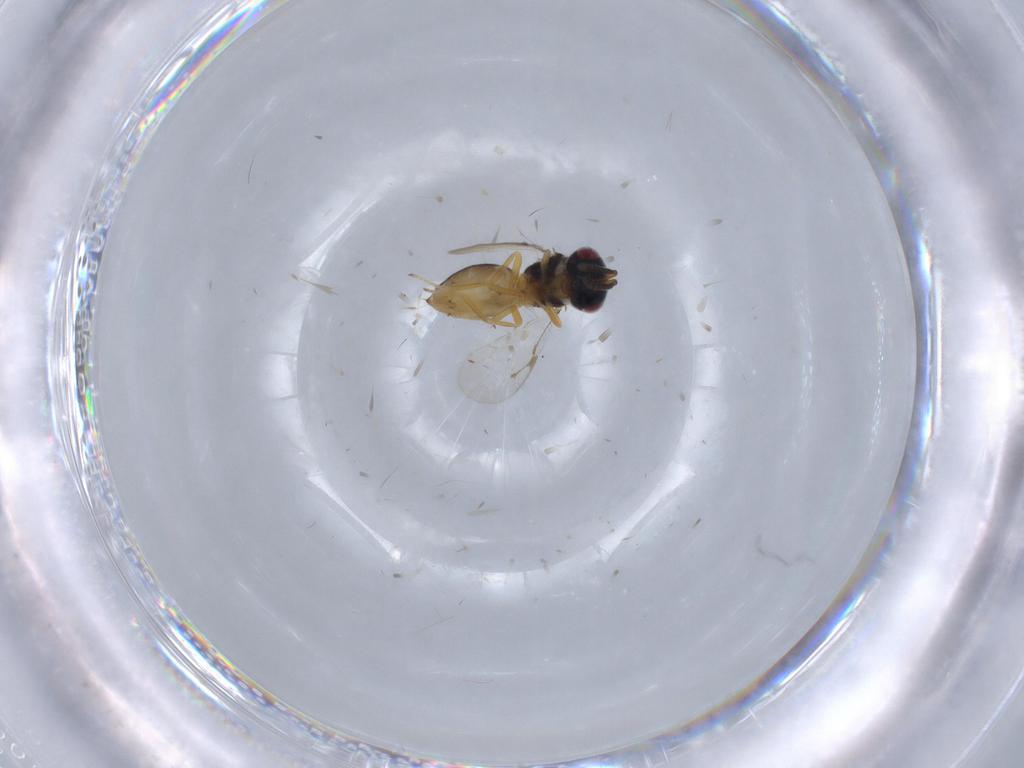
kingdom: Animalia
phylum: Arthropoda
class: Insecta
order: Hymenoptera
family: Pteromalidae
